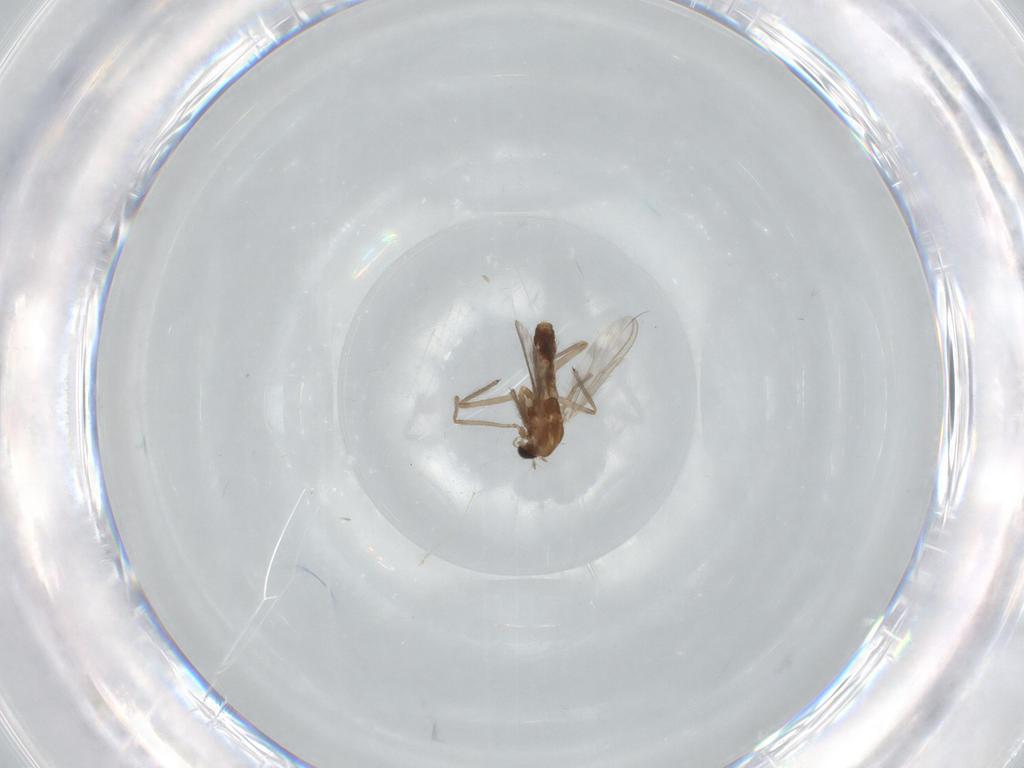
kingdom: Animalia
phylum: Arthropoda
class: Insecta
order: Diptera
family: Chironomidae
